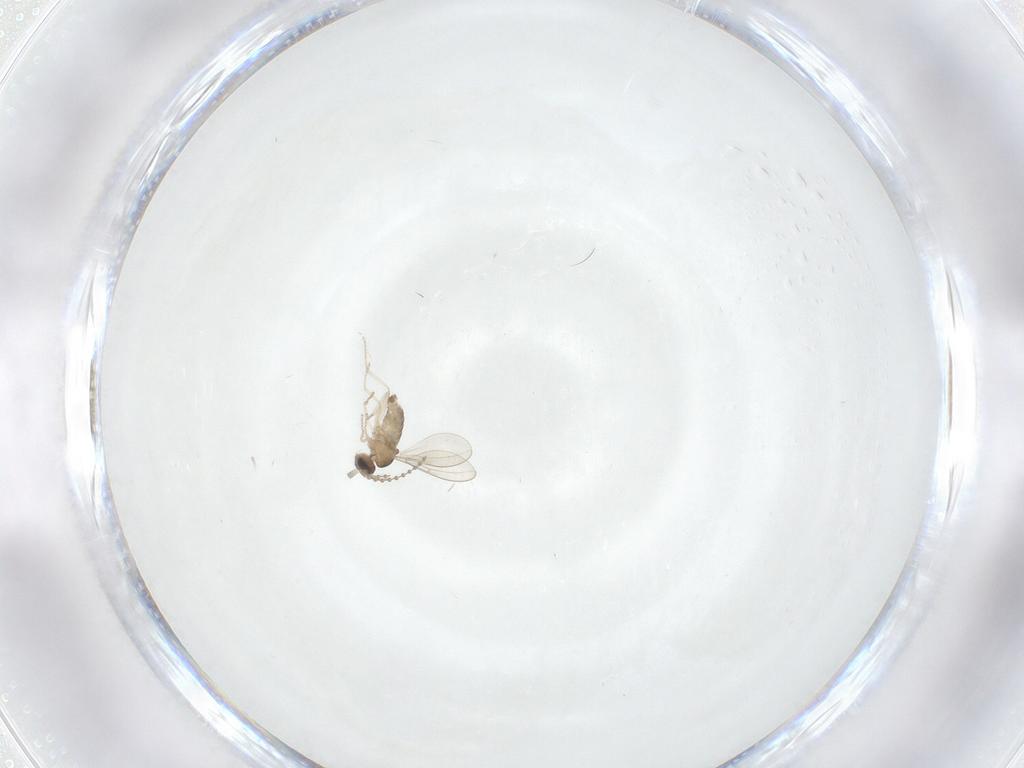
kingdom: Animalia
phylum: Arthropoda
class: Insecta
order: Diptera
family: Cecidomyiidae
